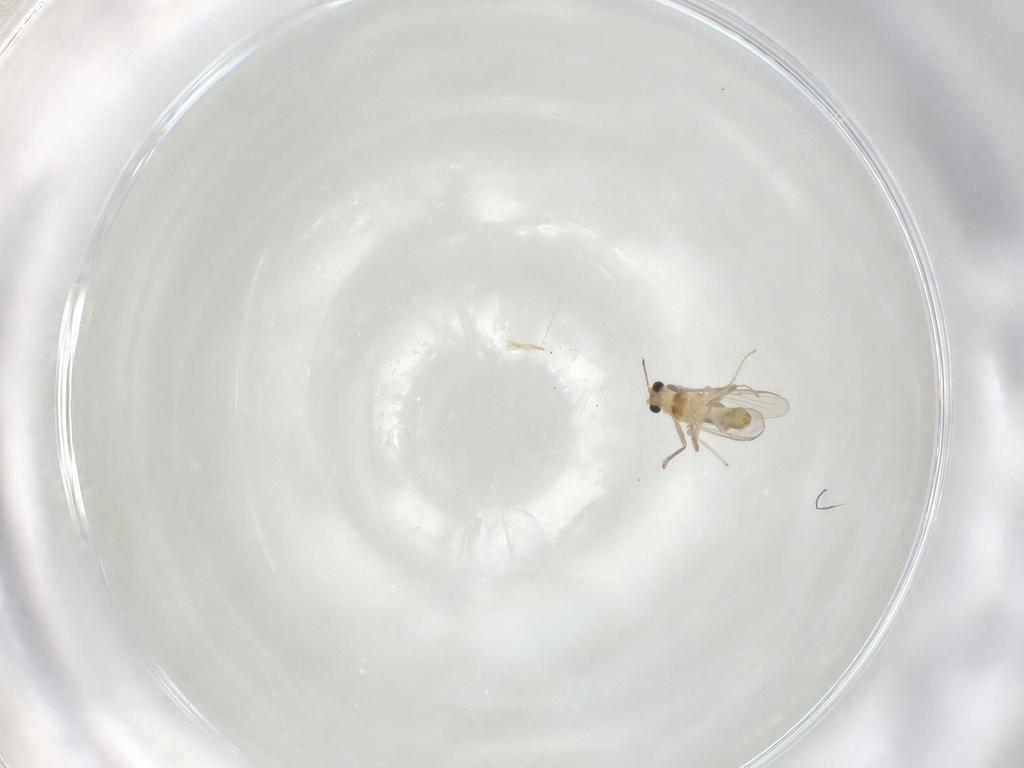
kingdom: Animalia
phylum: Arthropoda
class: Insecta
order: Diptera
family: Chironomidae
